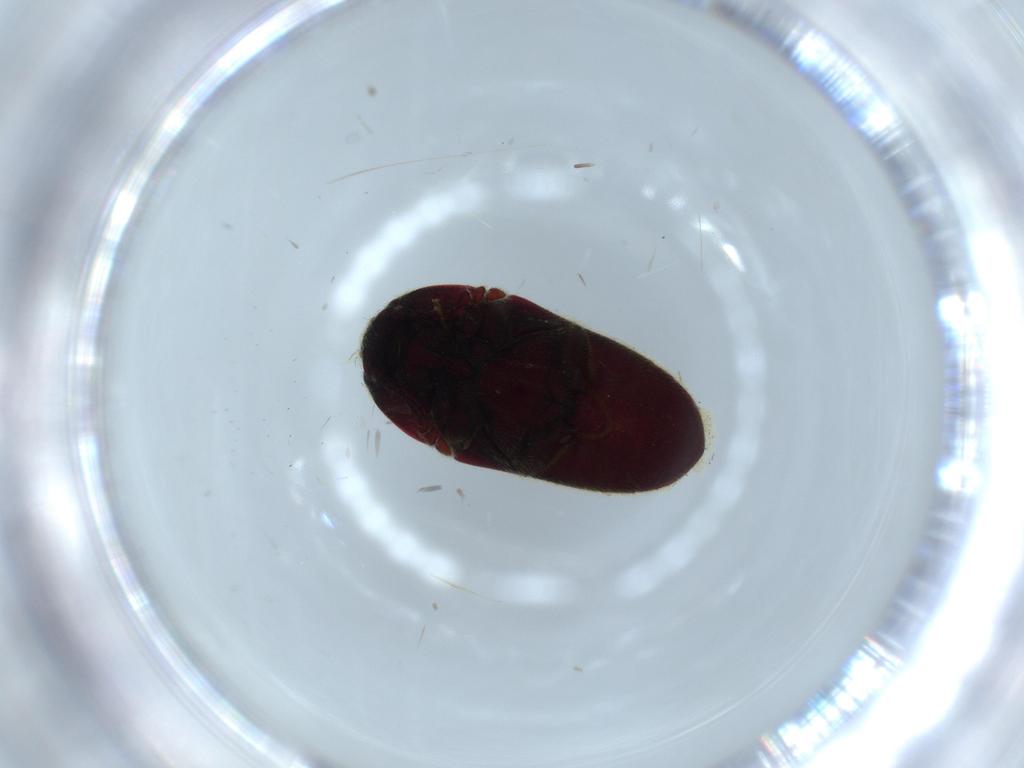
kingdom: Animalia
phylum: Arthropoda
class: Insecta
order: Coleoptera
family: Throscidae
